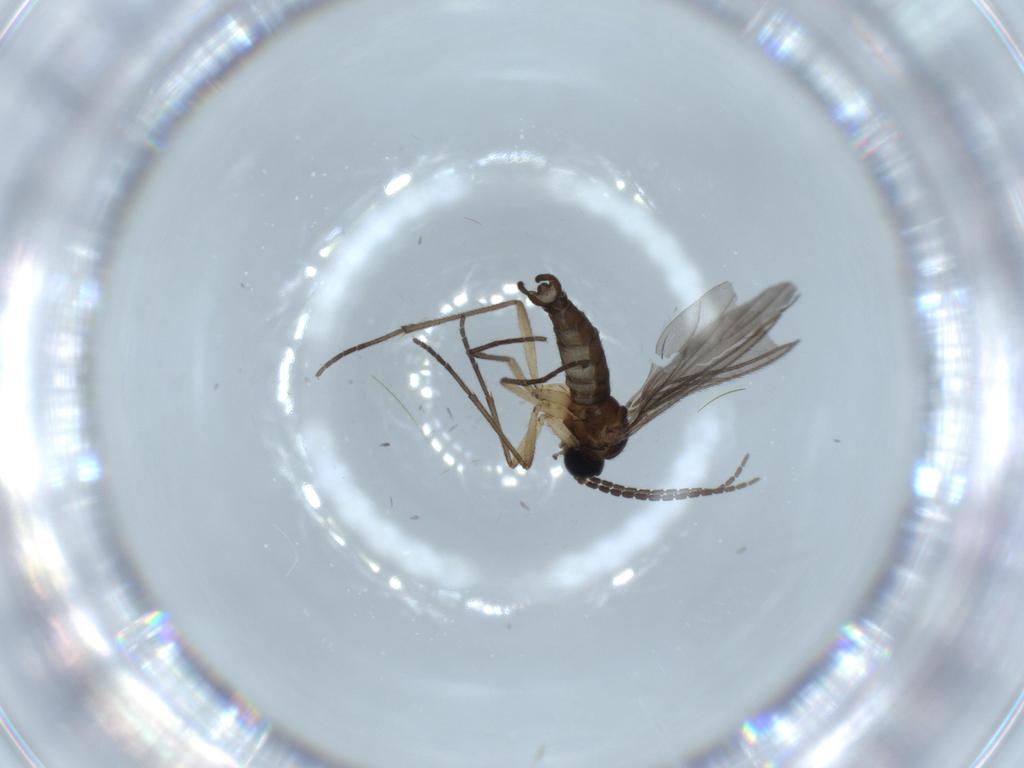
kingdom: Animalia
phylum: Arthropoda
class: Insecta
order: Diptera
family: Sciaridae
